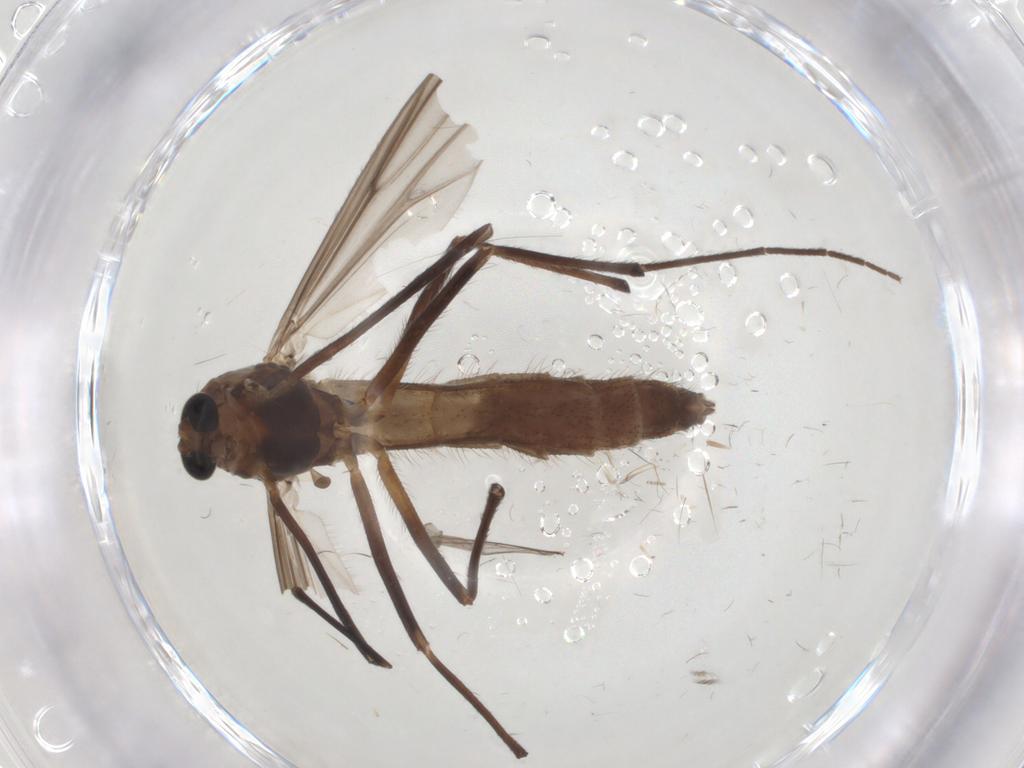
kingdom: Animalia
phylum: Arthropoda
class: Insecta
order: Diptera
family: Chironomidae
